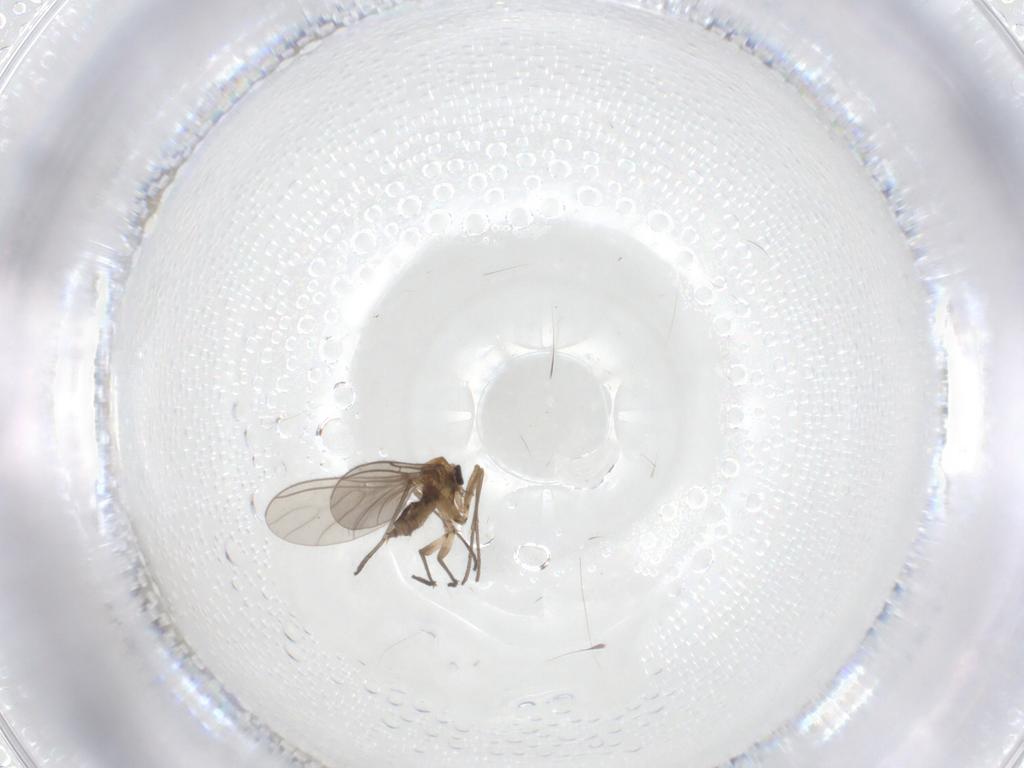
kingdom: Animalia
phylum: Arthropoda
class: Insecta
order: Diptera
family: Sciaridae
